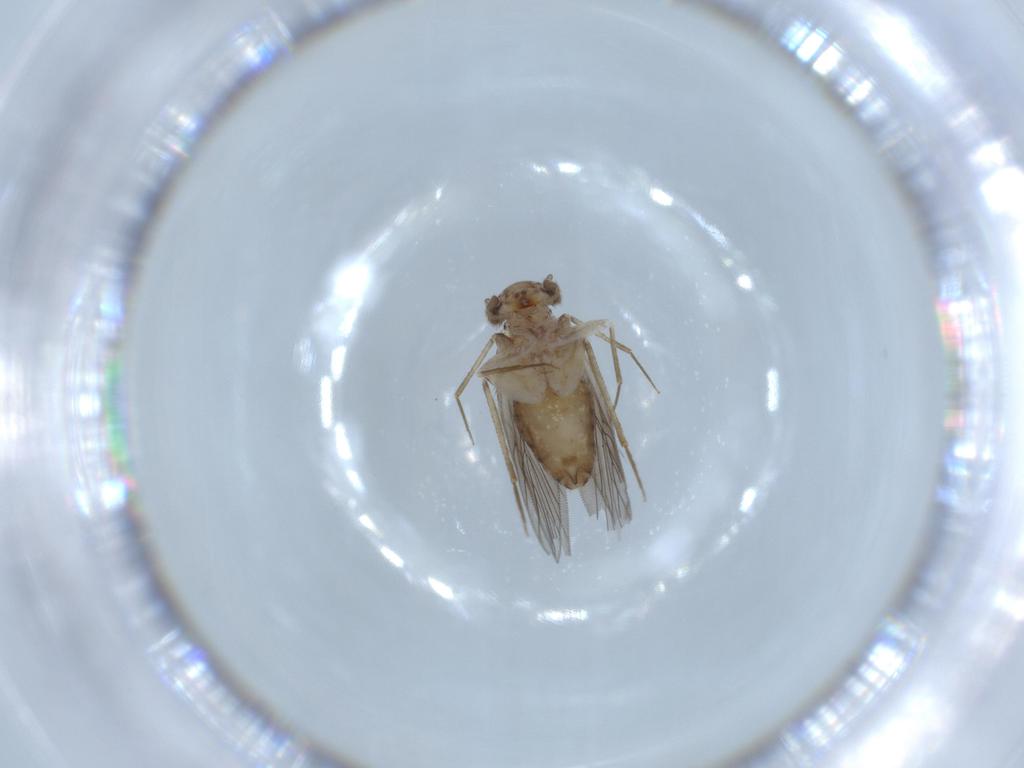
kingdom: Animalia
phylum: Arthropoda
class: Insecta
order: Psocodea
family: Lepidopsocidae
